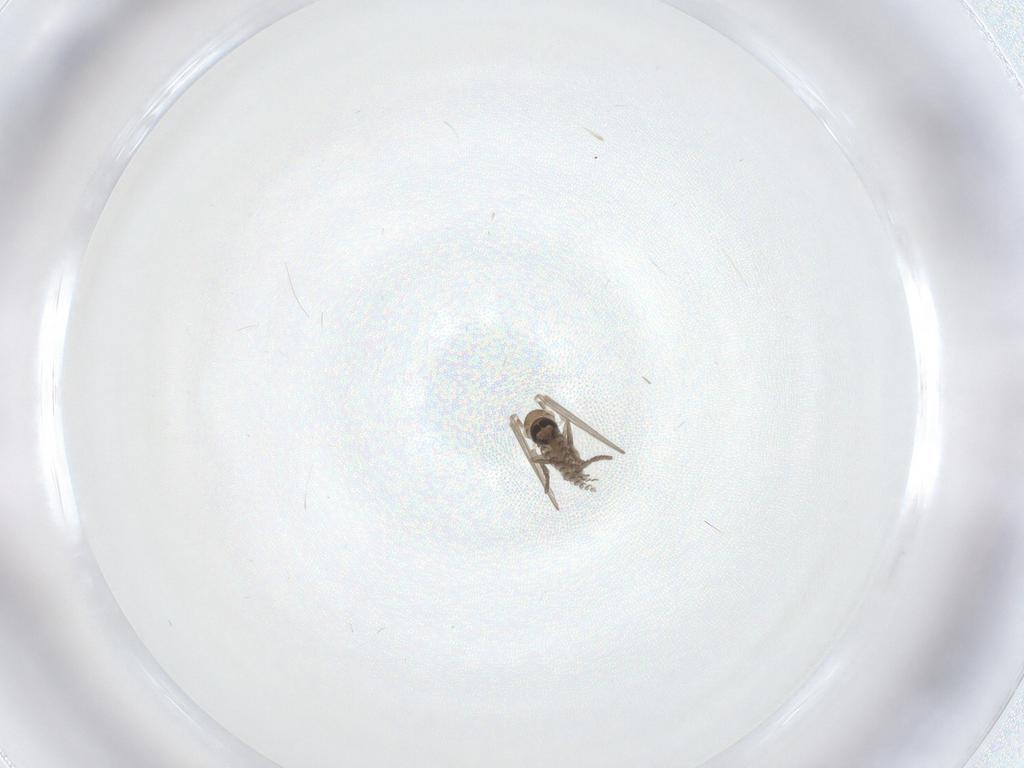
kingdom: Animalia
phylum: Arthropoda
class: Insecta
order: Diptera
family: Psychodidae
